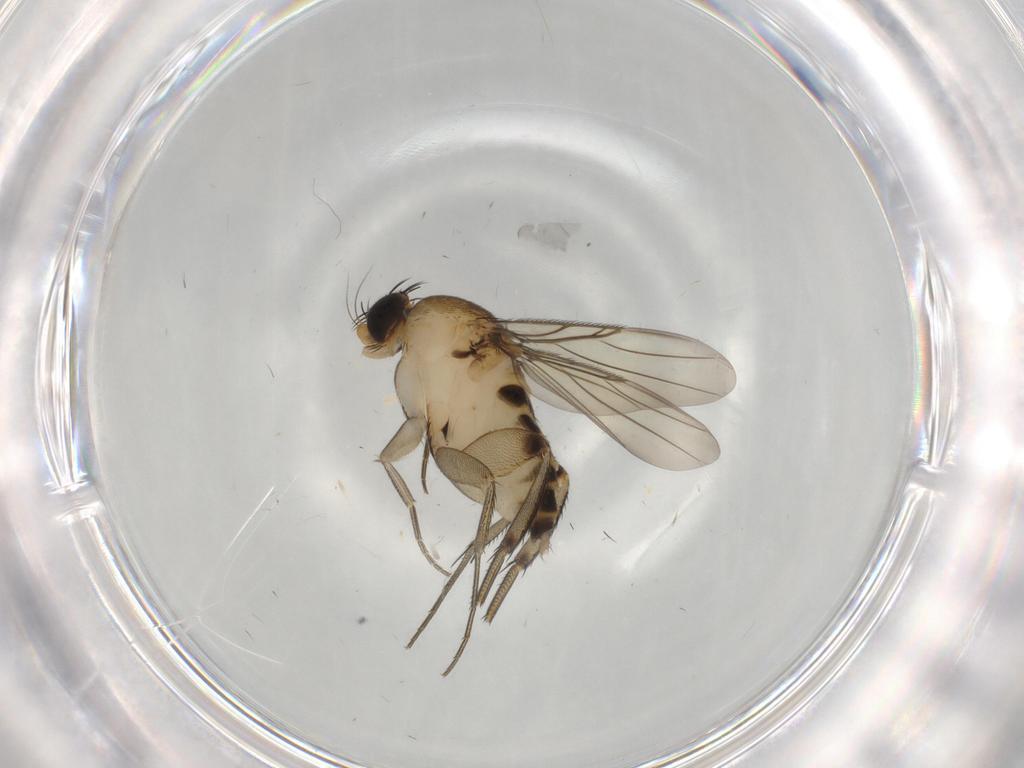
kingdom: Animalia
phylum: Arthropoda
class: Insecta
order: Diptera
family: Phoridae
